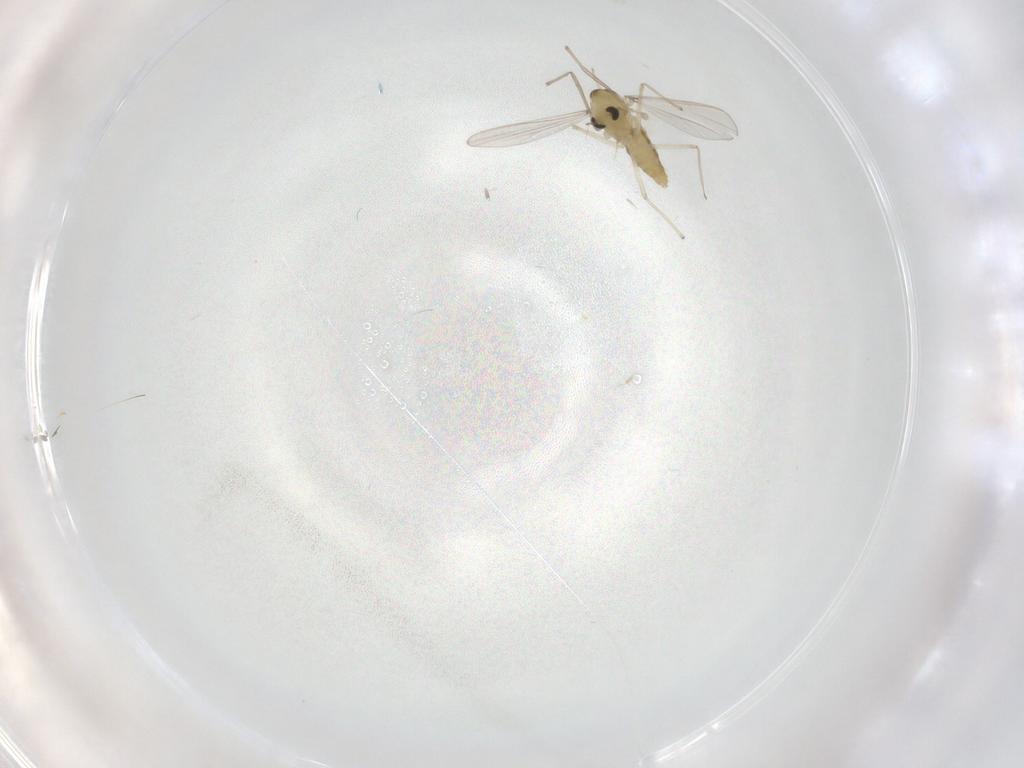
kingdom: Animalia
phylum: Arthropoda
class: Insecta
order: Diptera
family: Chironomidae
